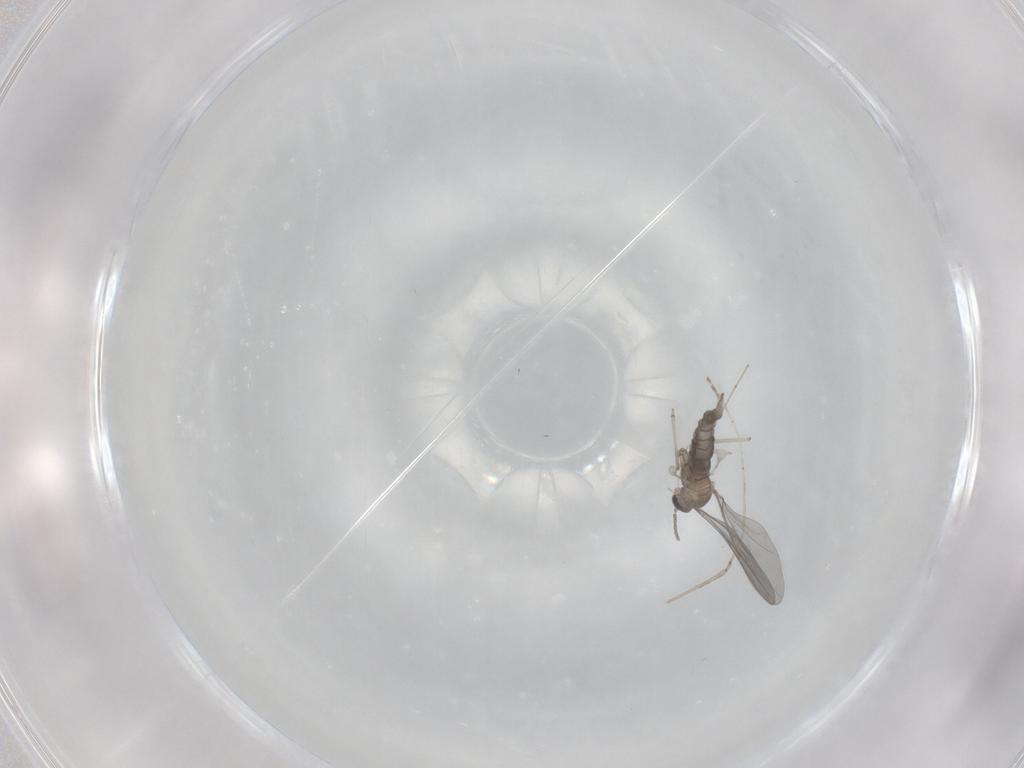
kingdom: Animalia
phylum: Arthropoda
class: Insecta
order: Diptera
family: Cecidomyiidae
